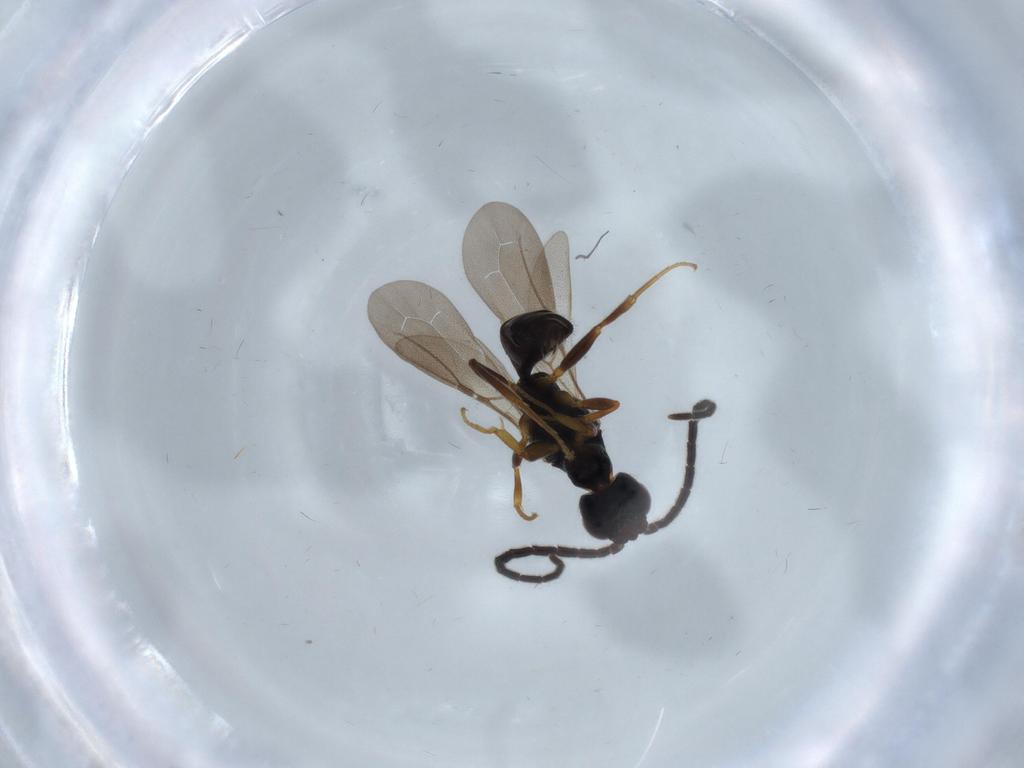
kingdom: Animalia
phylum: Arthropoda
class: Insecta
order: Hymenoptera
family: Bethylidae
